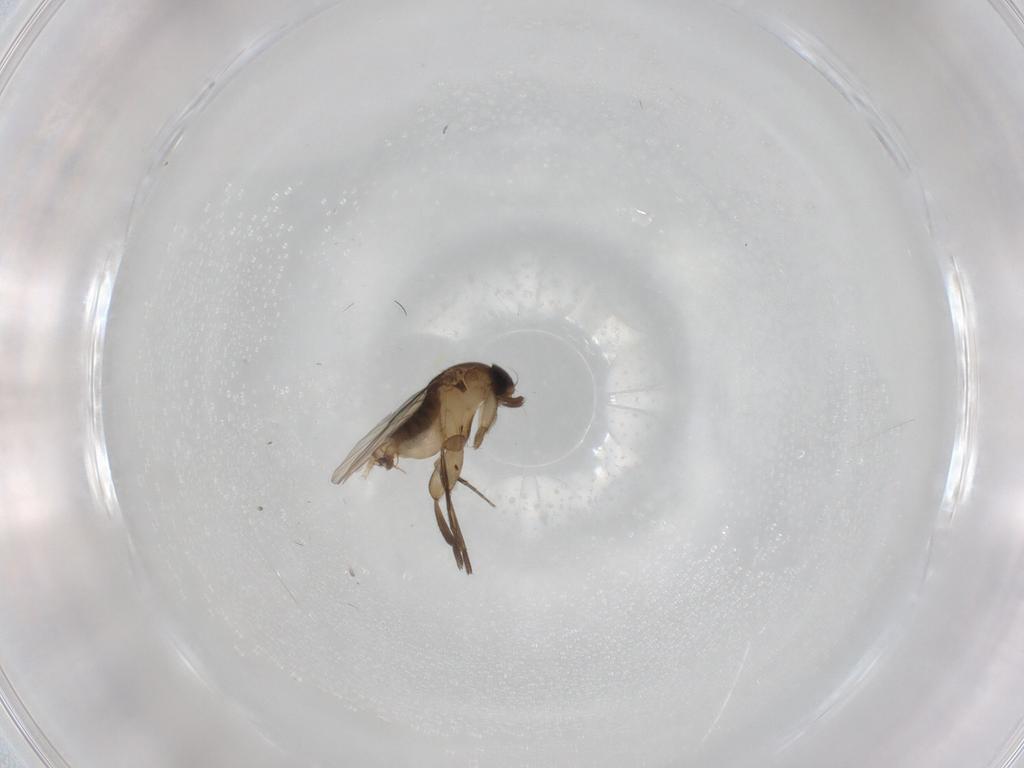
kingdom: Animalia
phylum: Arthropoda
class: Insecta
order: Diptera
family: Phoridae
